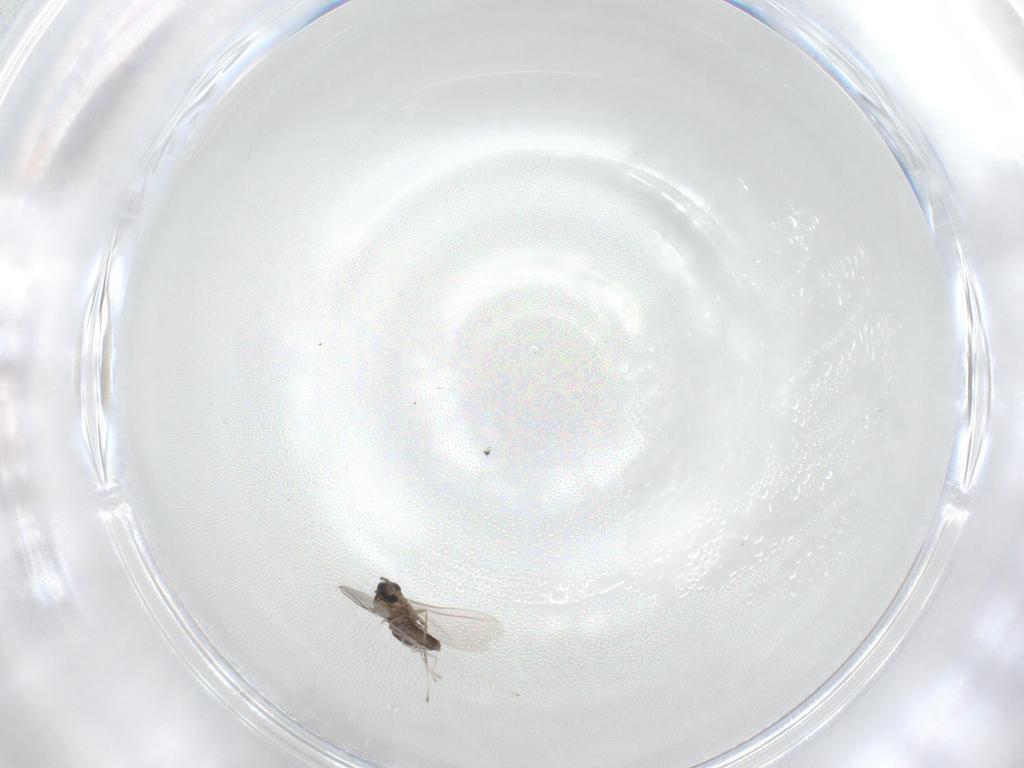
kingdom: Animalia
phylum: Arthropoda
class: Insecta
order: Diptera
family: Cecidomyiidae
